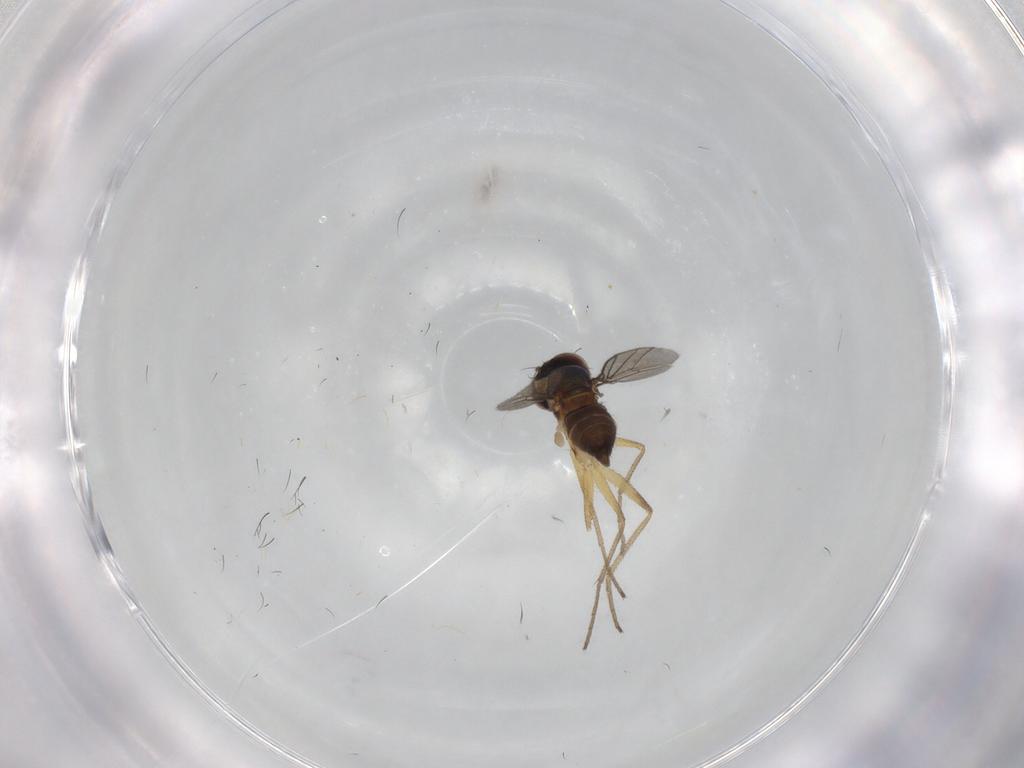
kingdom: Animalia
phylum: Arthropoda
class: Insecta
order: Diptera
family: Dolichopodidae
